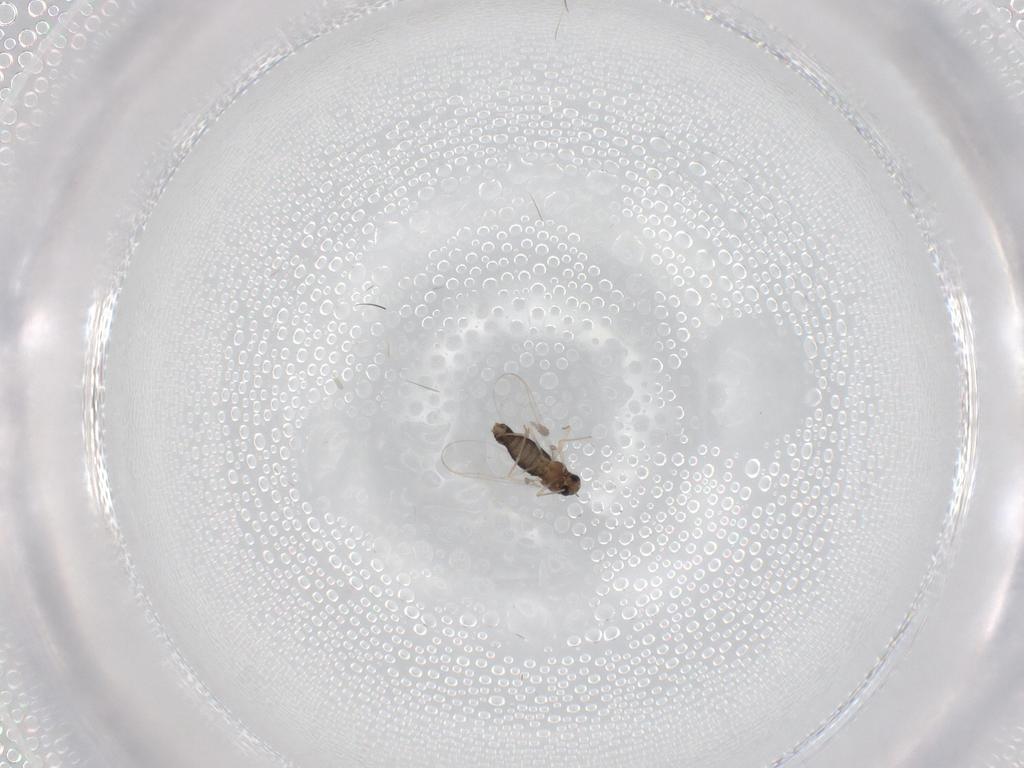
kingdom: Animalia
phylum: Arthropoda
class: Insecta
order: Diptera
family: Chironomidae
